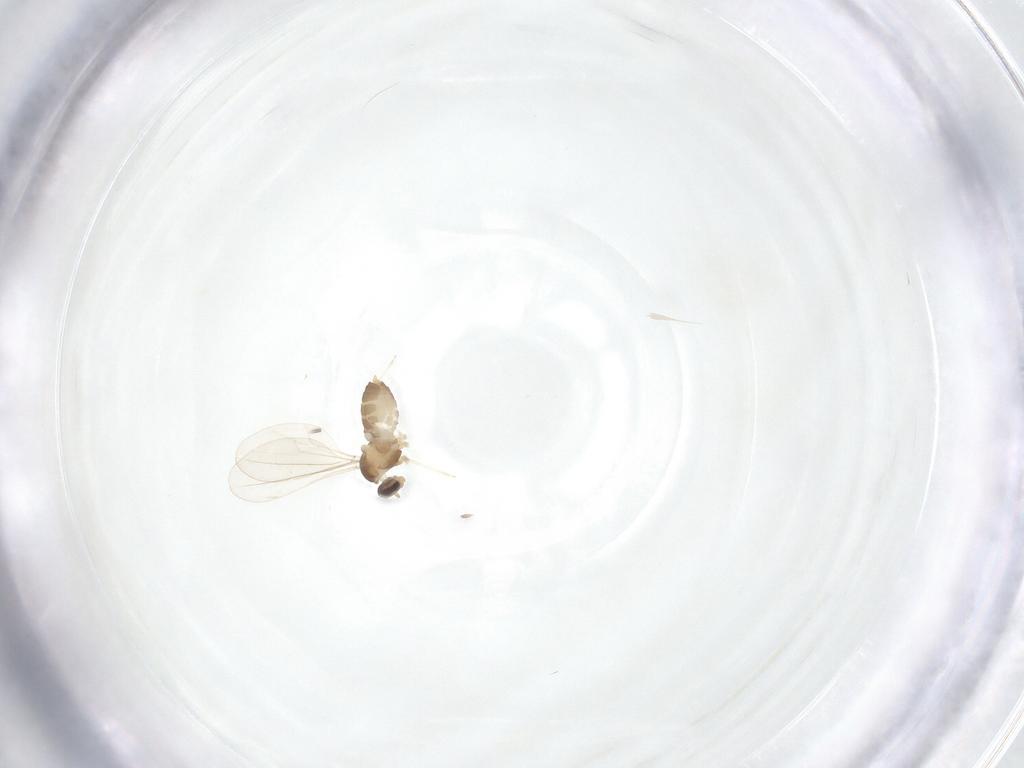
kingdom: Animalia
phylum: Arthropoda
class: Insecta
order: Diptera
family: Cecidomyiidae
